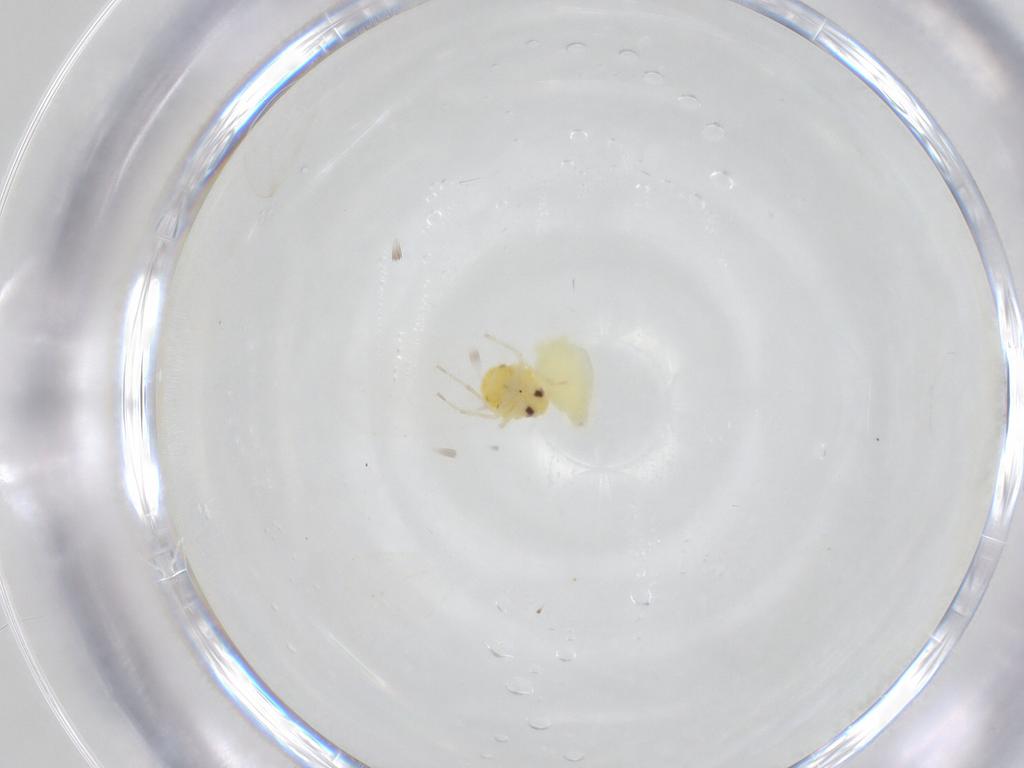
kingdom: Animalia
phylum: Arthropoda
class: Insecta
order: Hemiptera
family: Aleyrodidae
